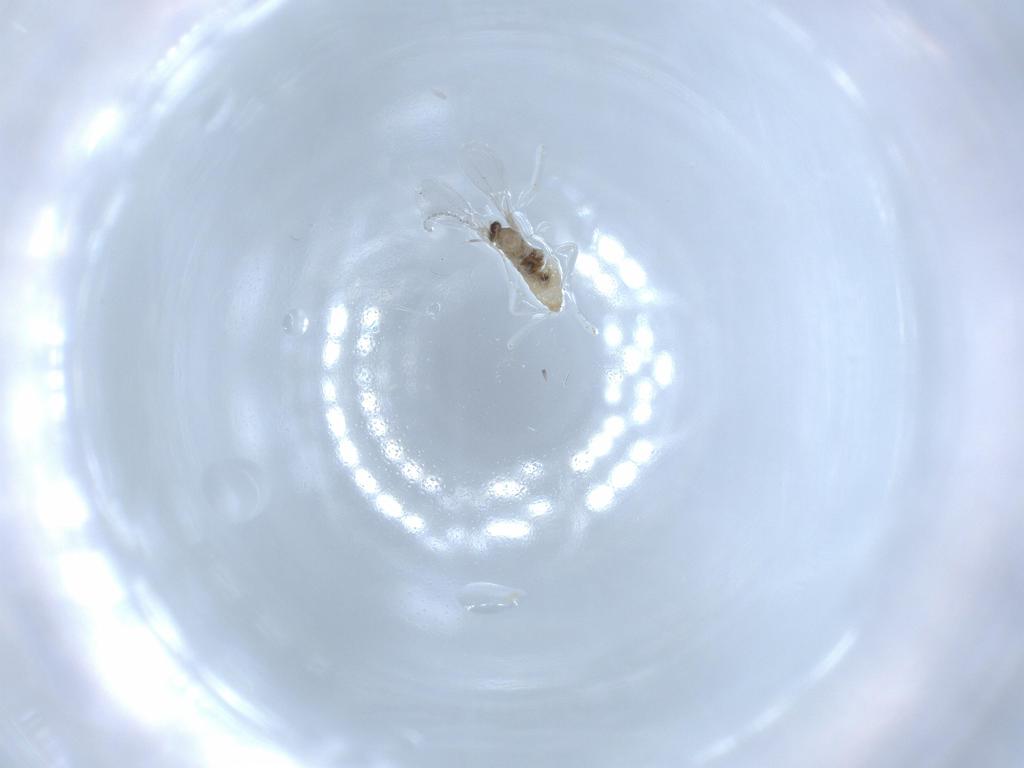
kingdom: Animalia
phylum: Arthropoda
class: Insecta
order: Diptera
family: Cecidomyiidae
